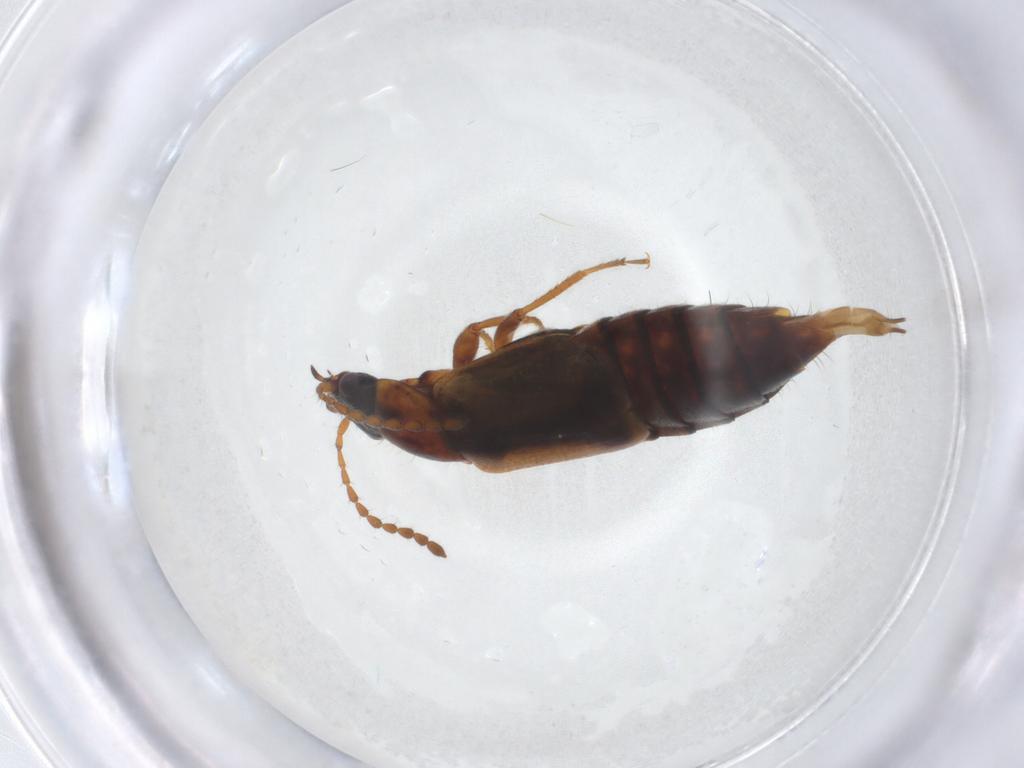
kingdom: Animalia
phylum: Arthropoda
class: Insecta
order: Coleoptera
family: Staphylinidae
